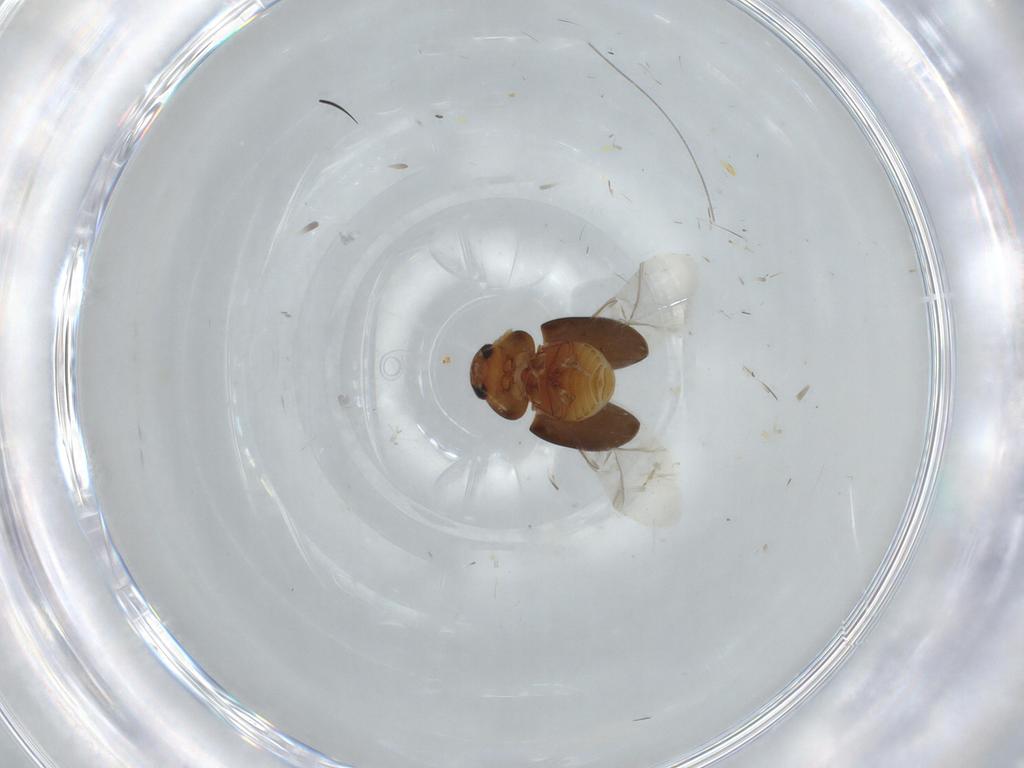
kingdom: Animalia
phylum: Arthropoda
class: Insecta
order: Coleoptera
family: Phalacridae
